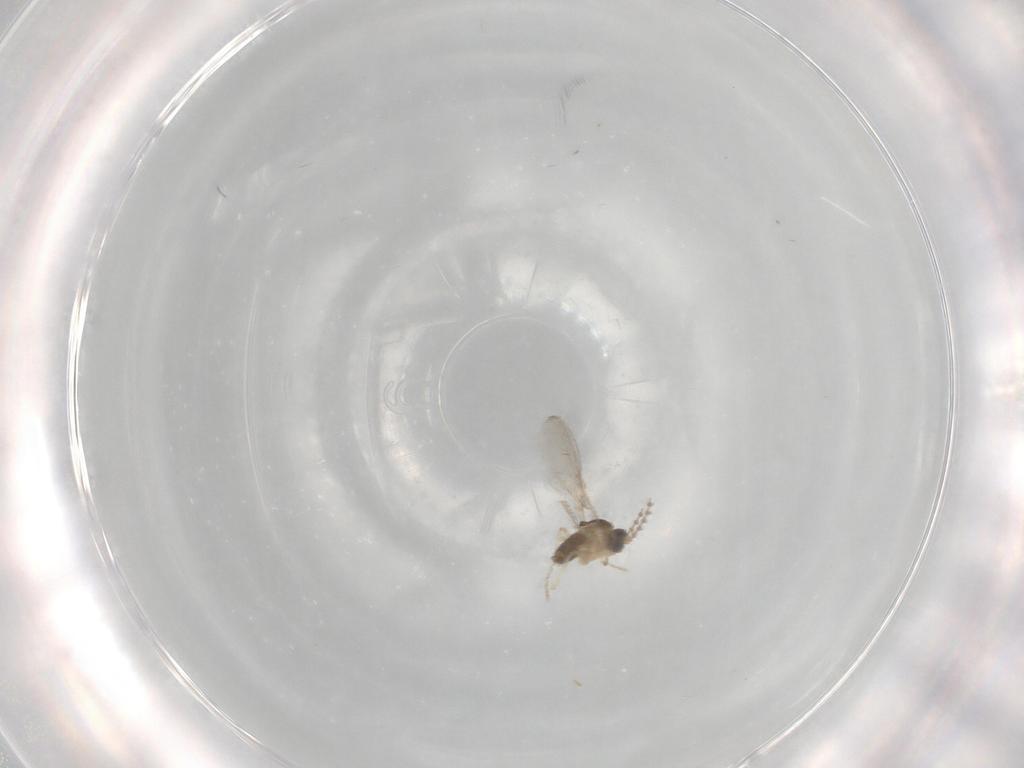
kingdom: Animalia
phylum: Arthropoda
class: Insecta
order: Diptera
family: Cecidomyiidae
